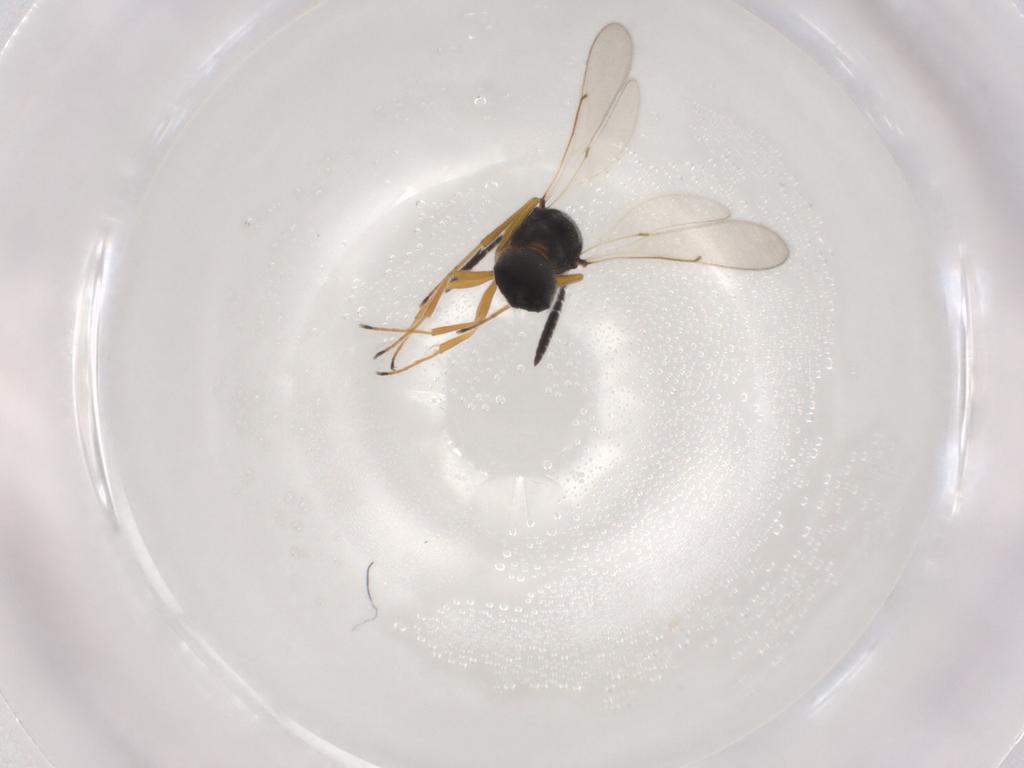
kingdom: Animalia
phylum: Arthropoda
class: Insecta
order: Hymenoptera
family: Scelionidae
